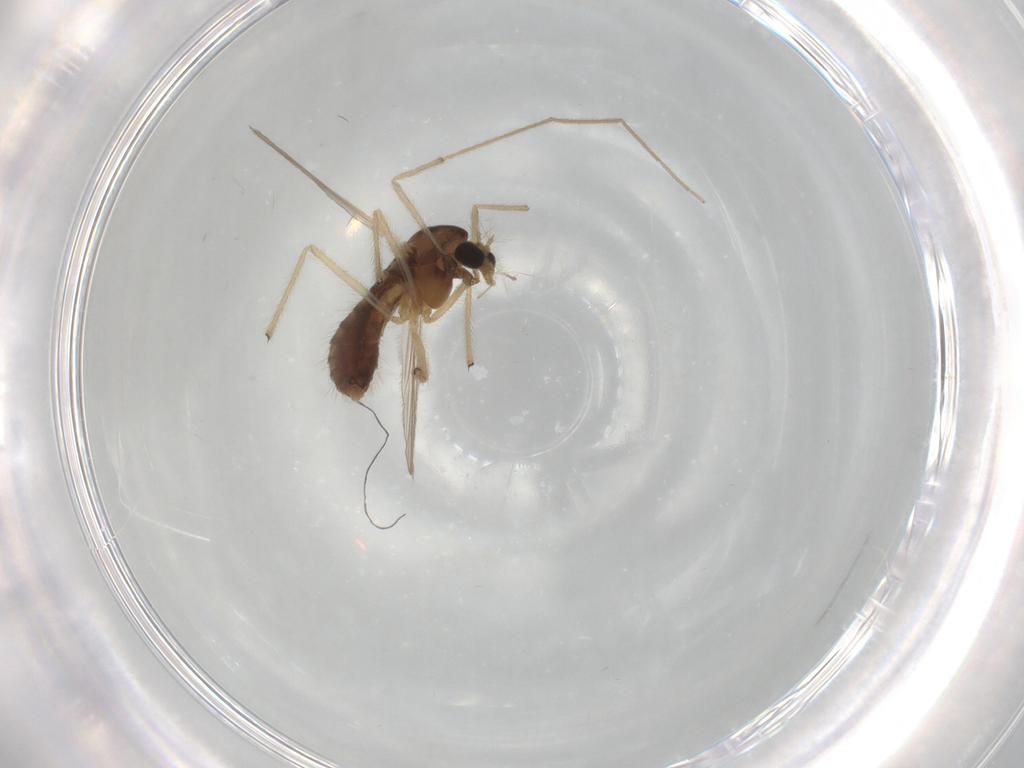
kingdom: Animalia
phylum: Arthropoda
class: Insecta
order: Diptera
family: Chironomidae
